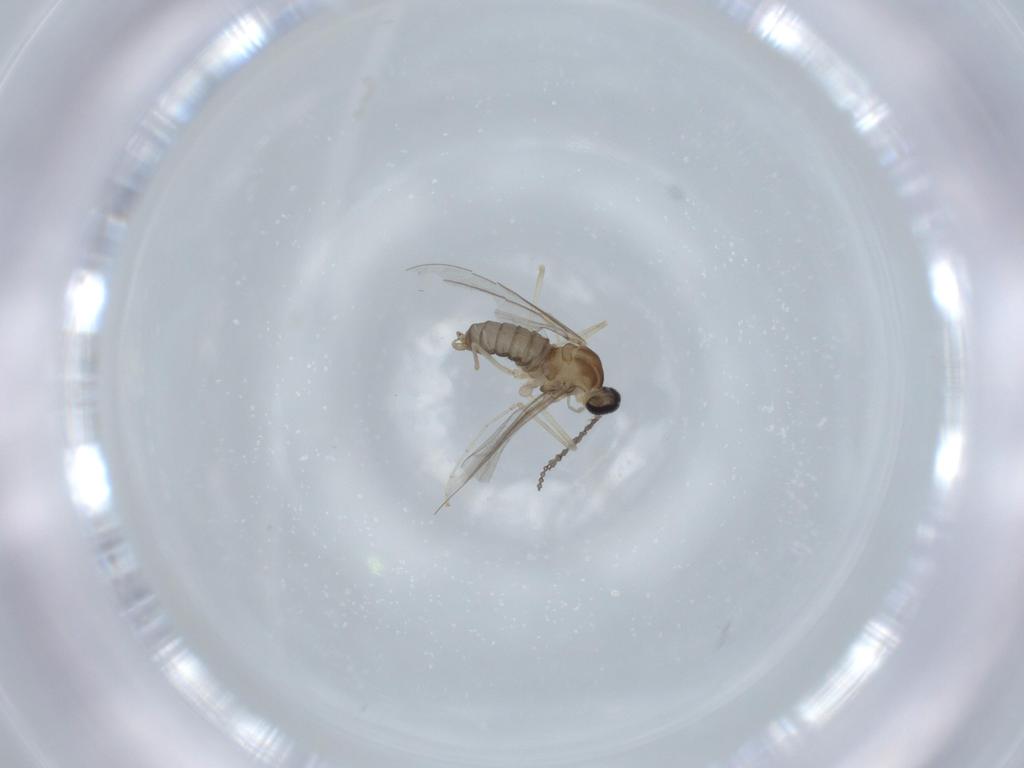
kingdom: Animalia
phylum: Arthropoda
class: Insecta
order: Diptera
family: Cecidomyiidae
